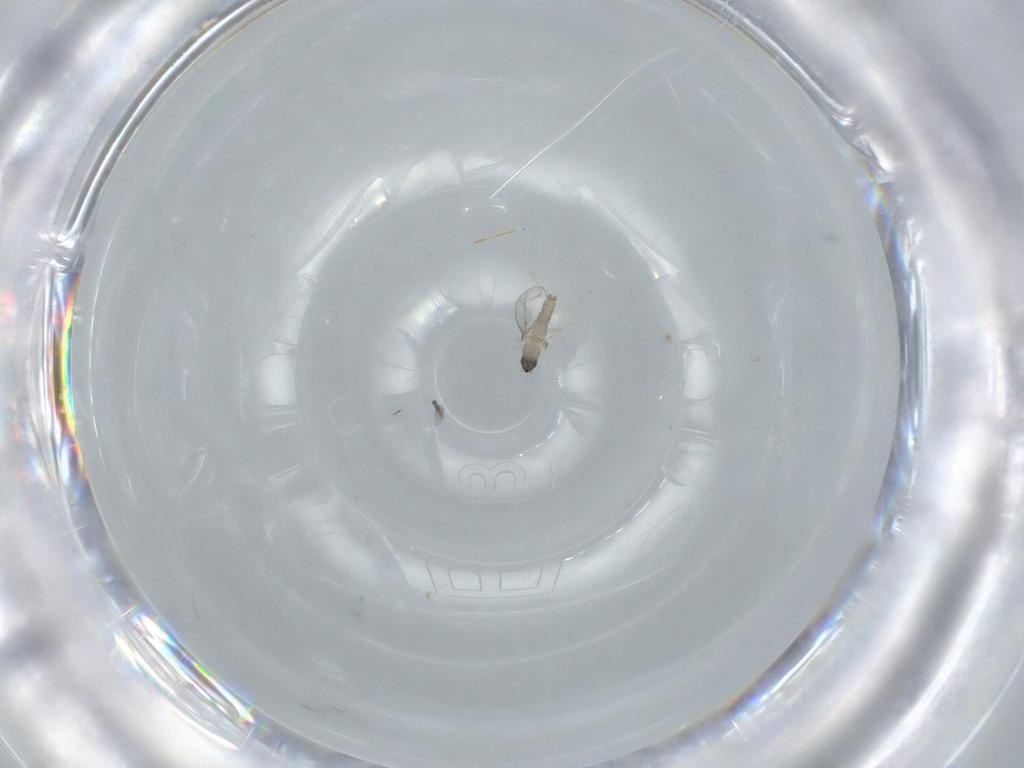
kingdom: Animalia
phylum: Arthropoda
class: Insecta
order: Diptera
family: Cecidomyiidae
